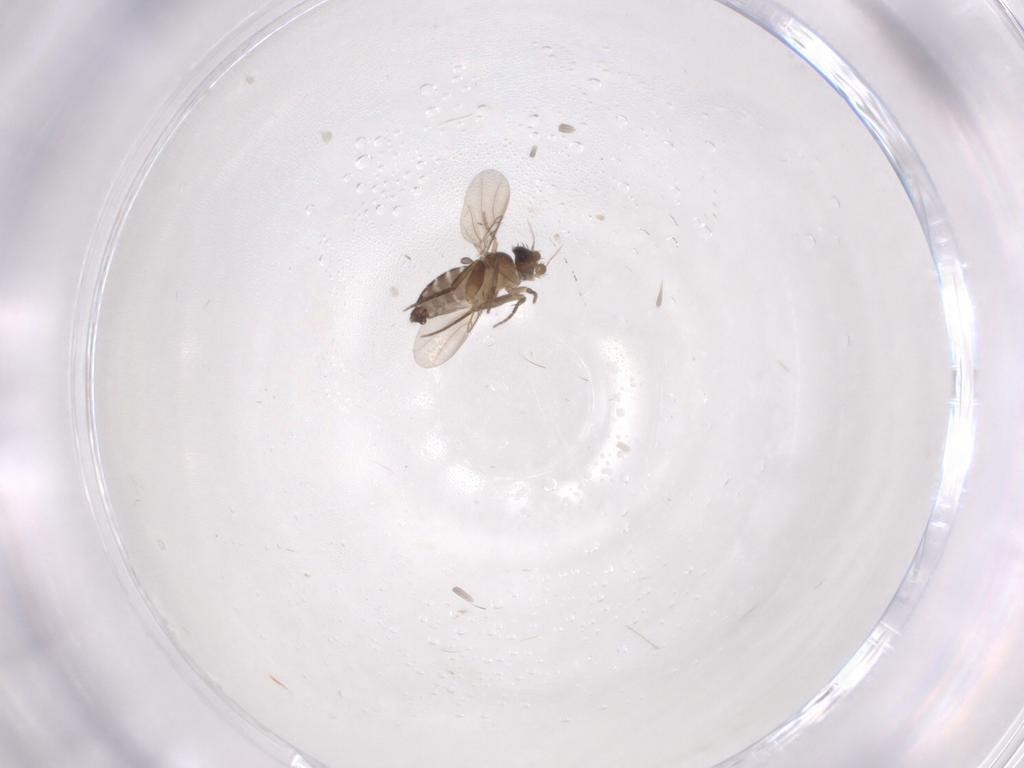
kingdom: Animalia
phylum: Arthropoda
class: Insecta
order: Diptera
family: Phoridae
